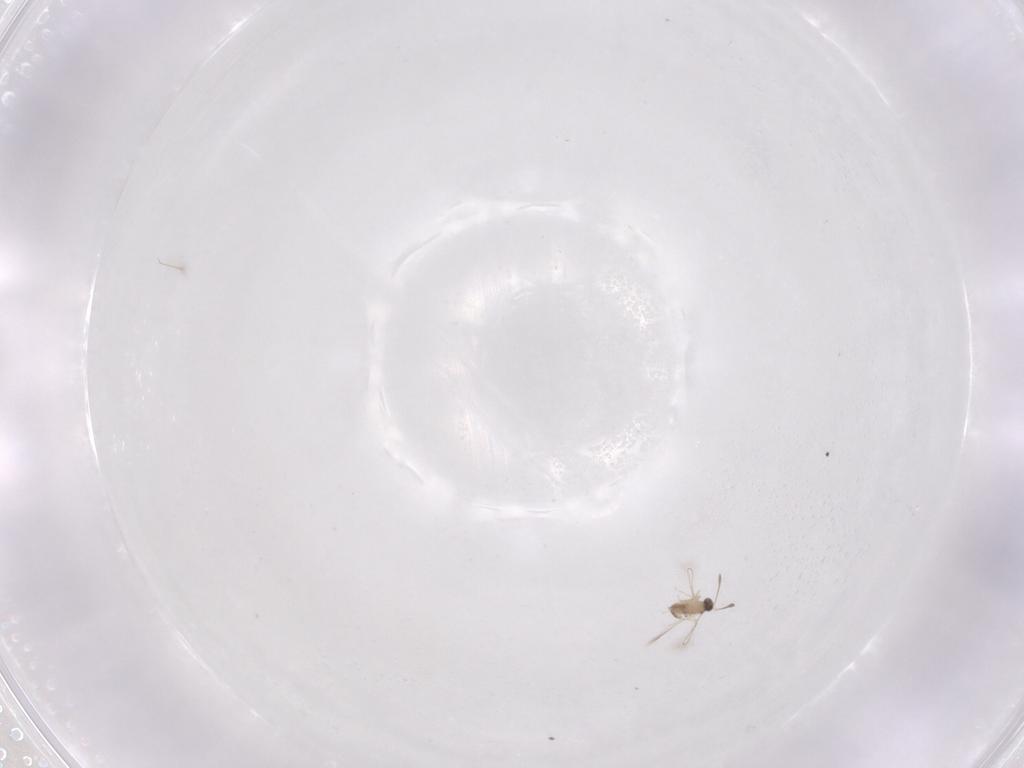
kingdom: Animalia
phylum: Arthropoda
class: Insecta
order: Hymenoptera
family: Mymaridae
